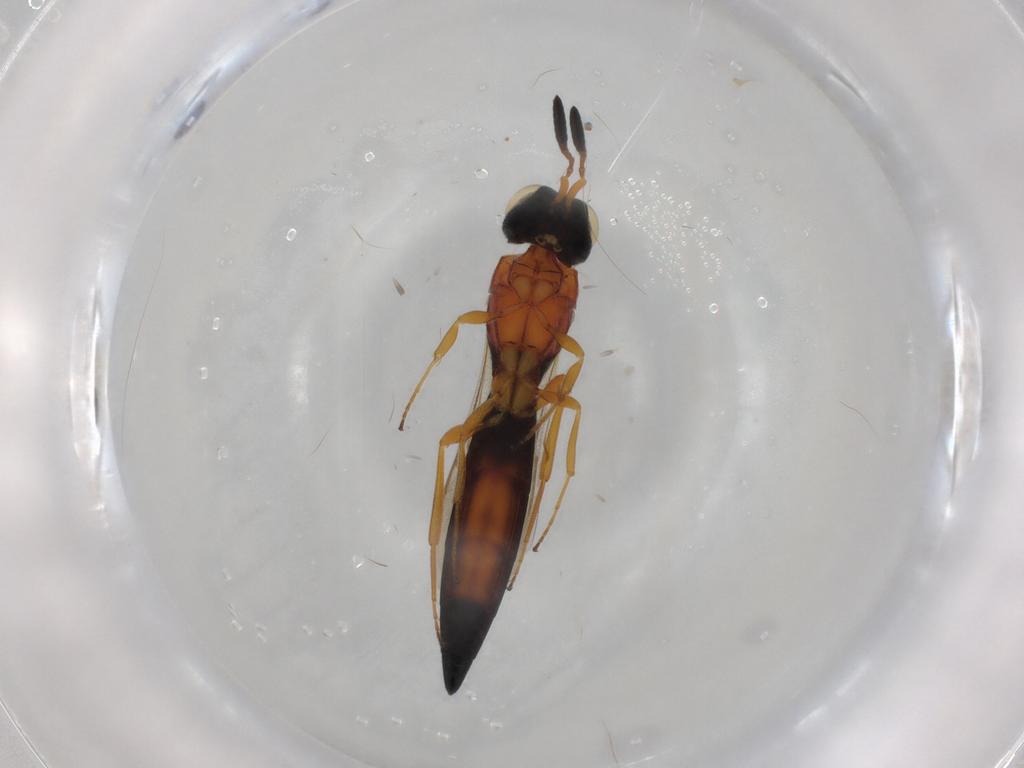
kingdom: Animalia
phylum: Arthropoda
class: Insecta
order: Hymenoptera
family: Scelionidae
